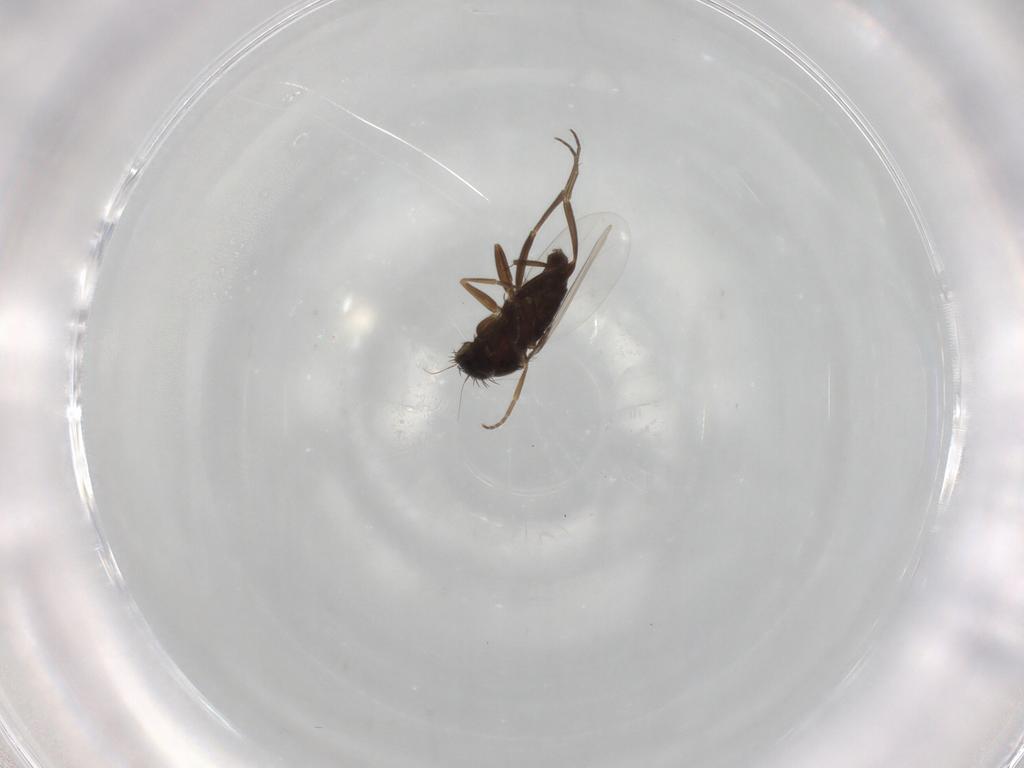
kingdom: Animalia
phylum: Arthropoda
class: Insecta
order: Diptera
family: Phoridae
